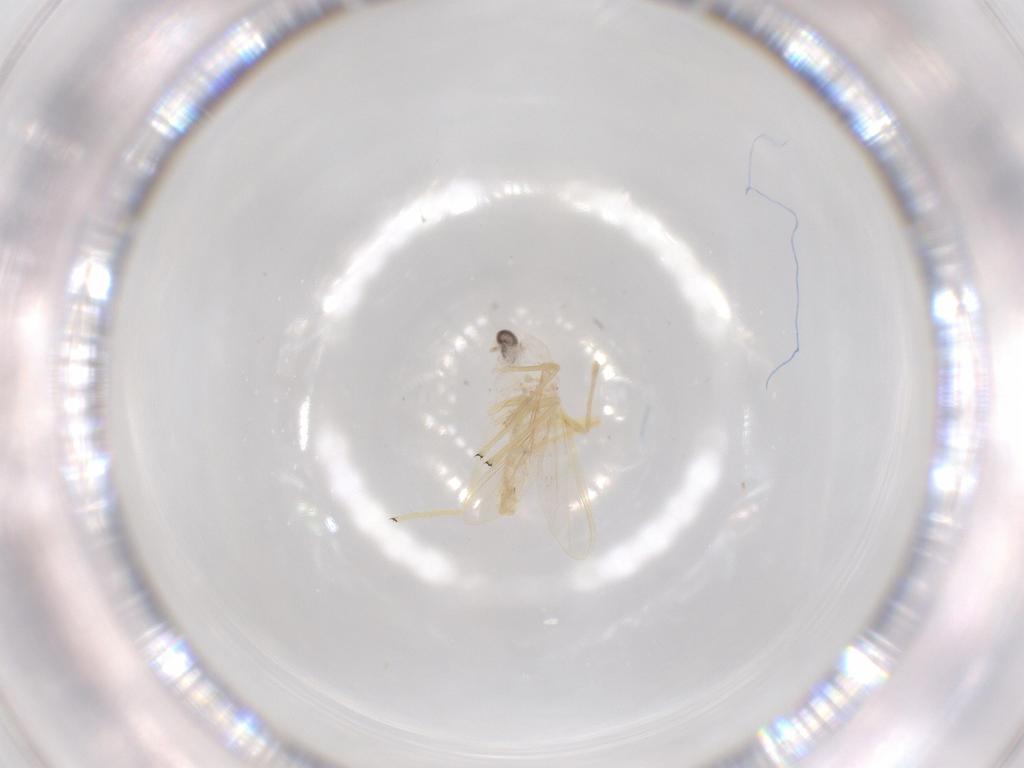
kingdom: Animalia
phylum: Arthropoda
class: Insecta
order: Diptera
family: Chironomidae
